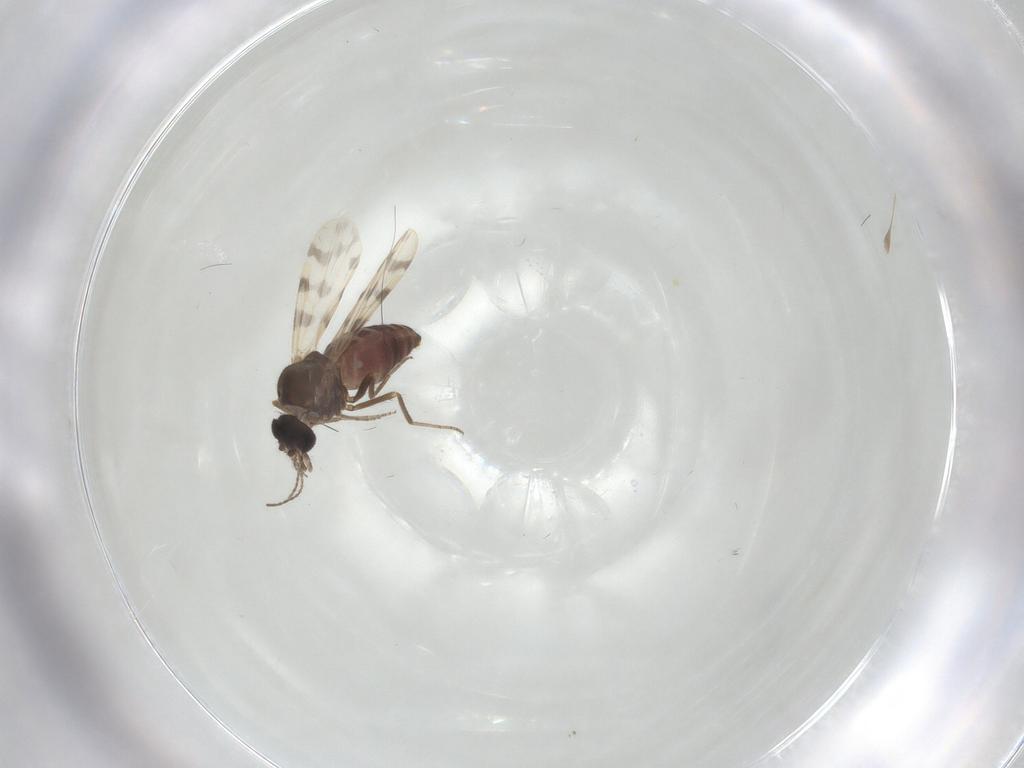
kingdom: Animalia
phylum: Arthropoda
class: Insecta
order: Diptera
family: Ceratopogonidae
